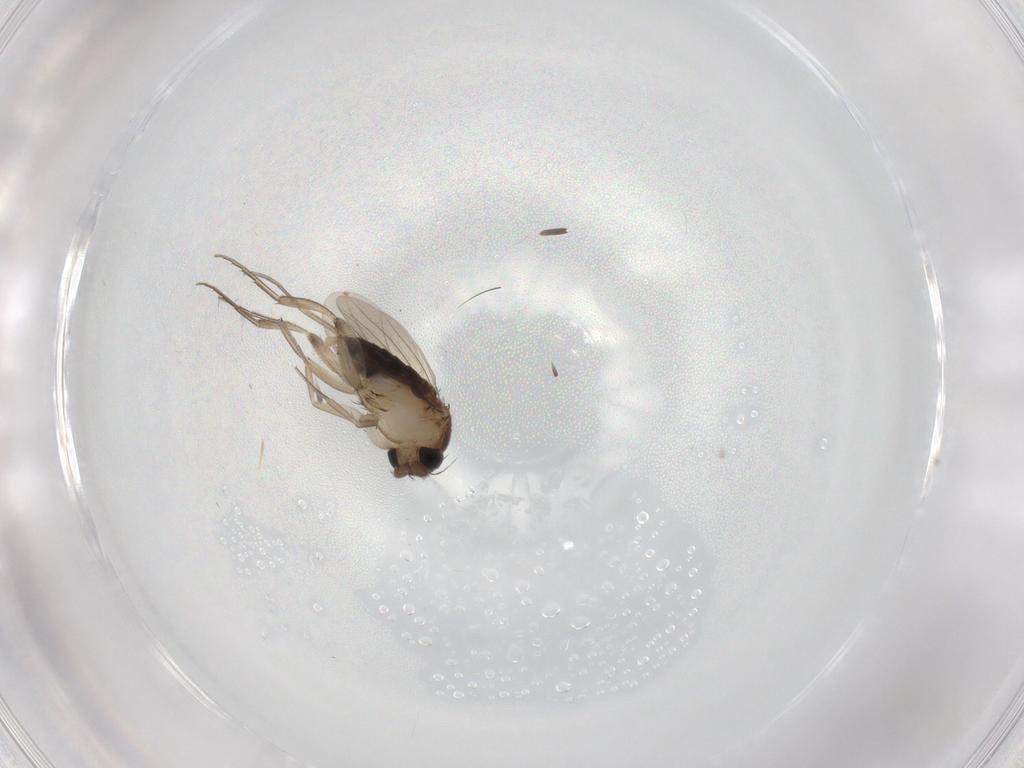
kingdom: Animalia
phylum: Arthropoda
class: Insecta
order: Diptera
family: Phoridae
